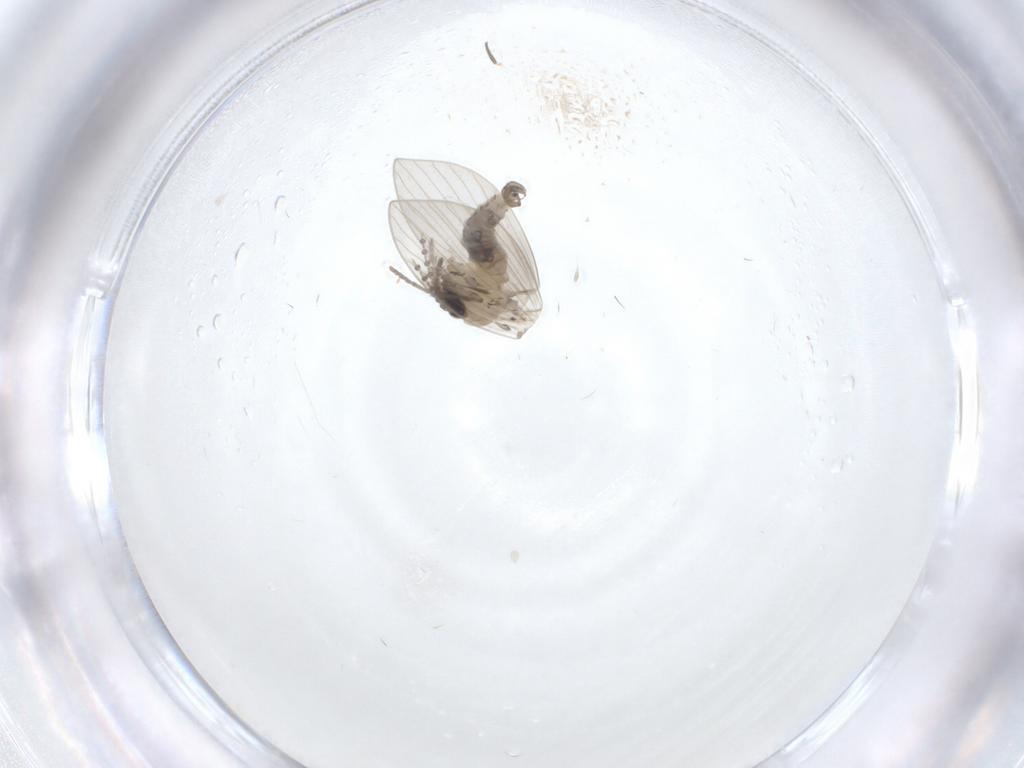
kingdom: Animalia
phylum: Arthropoda
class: Insecta
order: Diptera
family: Psychodidae
